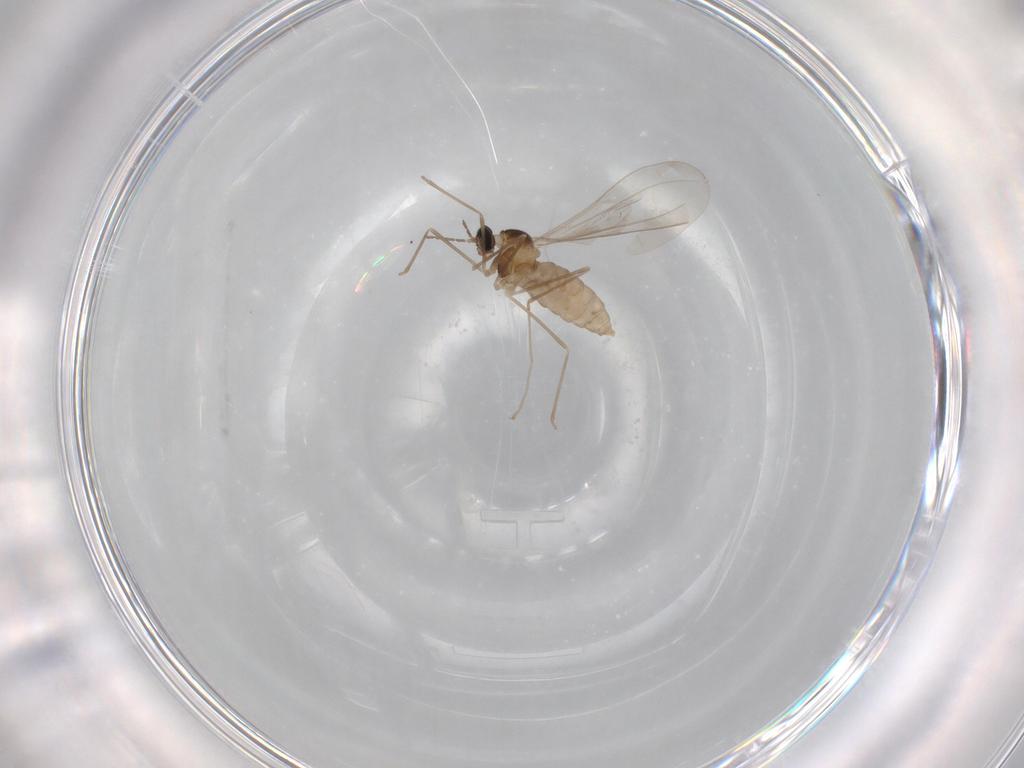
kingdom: Animalia
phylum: Arthropoda
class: Insecta
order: Diptera
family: Cecidomyiidae
